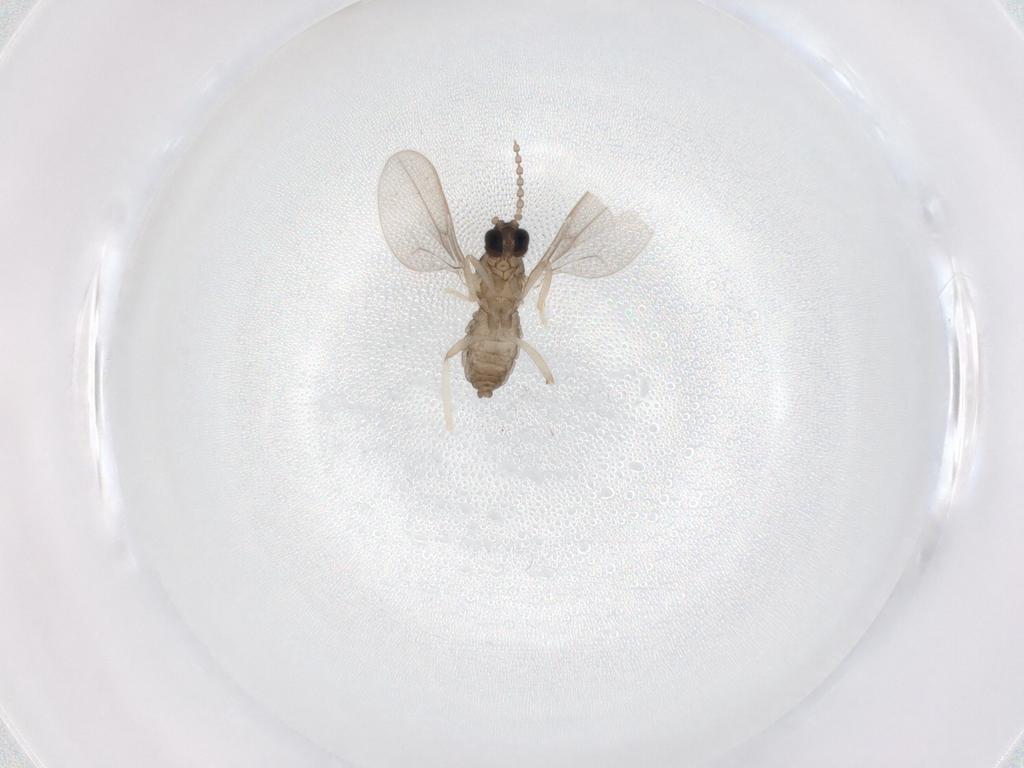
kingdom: Animalia
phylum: Arthropoda
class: Insecta
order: Diptera
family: Cecidomyiidae
